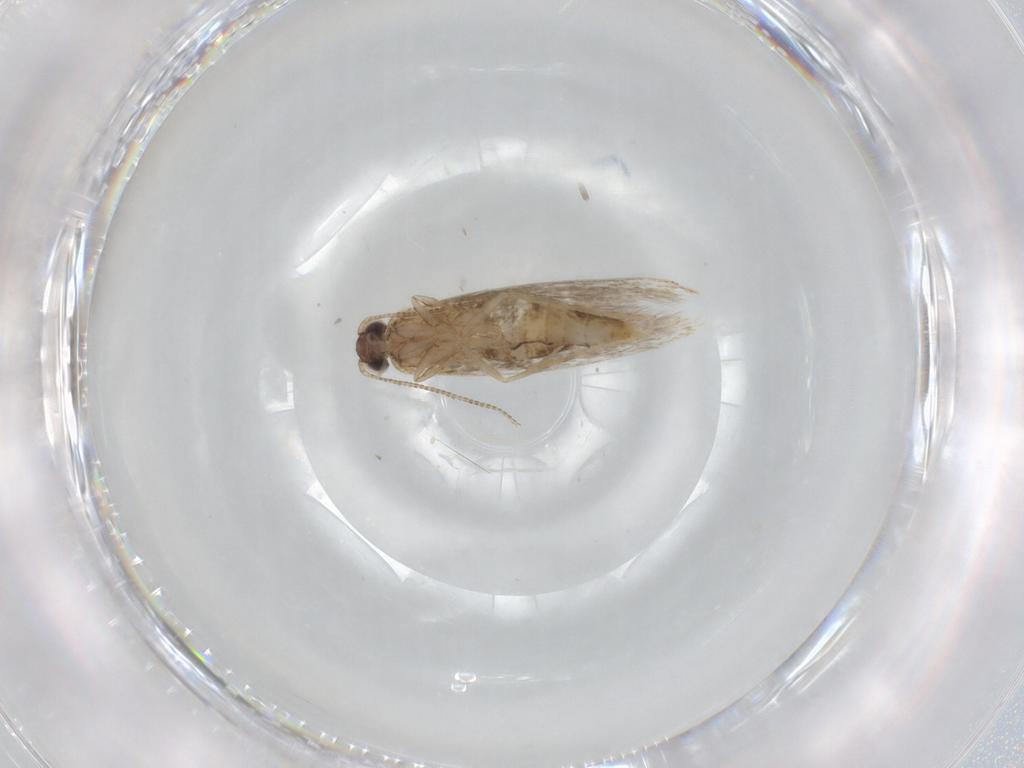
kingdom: Animalia
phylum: Arthropoda
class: Insecta
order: Lepidoptera
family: Tineidae
